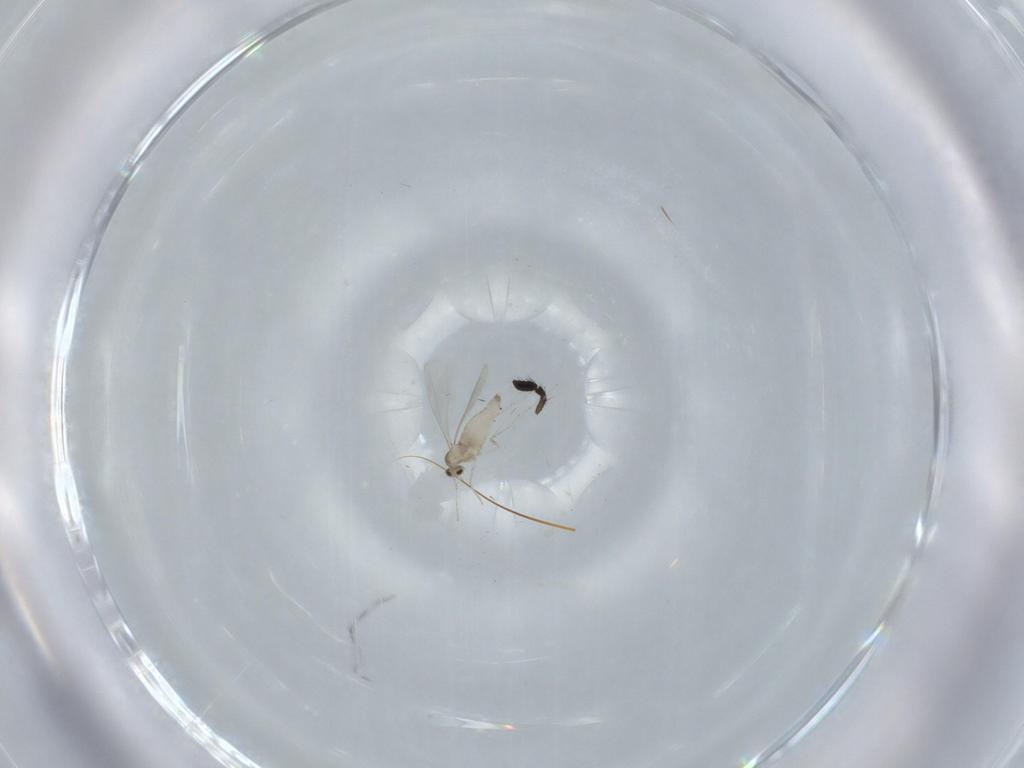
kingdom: Animalia
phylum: Arthropoda
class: Insecta
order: Diptera
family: Cecidomyiidae
